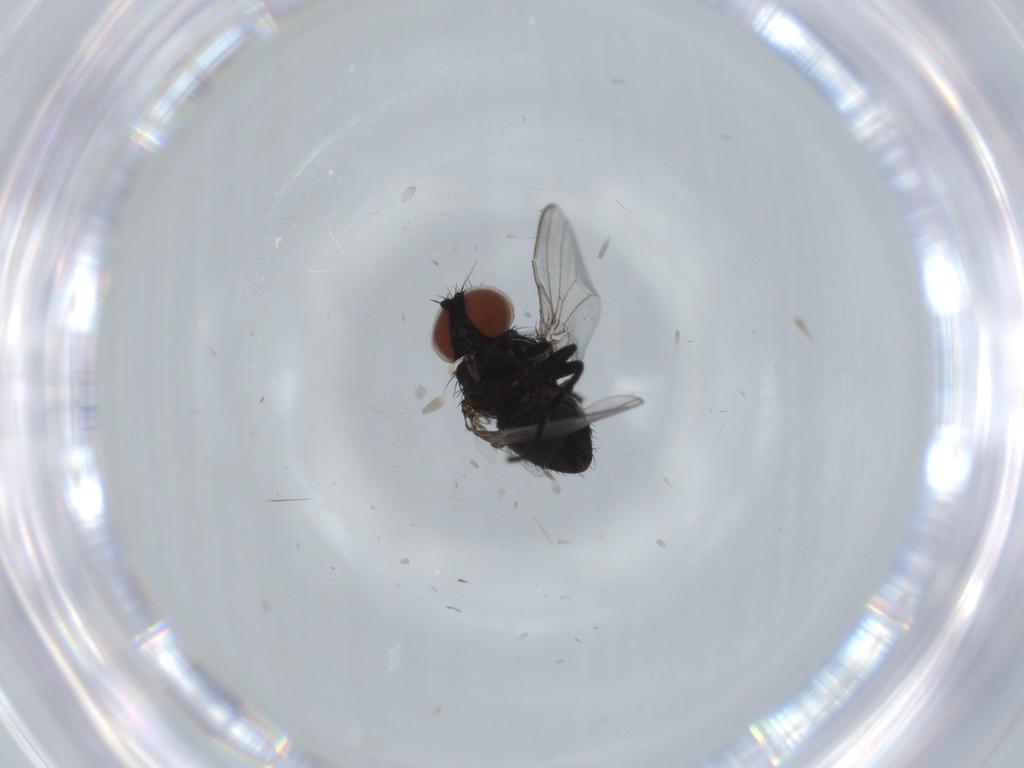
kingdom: Animalia
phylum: Arthropoda
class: Insecta
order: Diptera
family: Milichiidae
